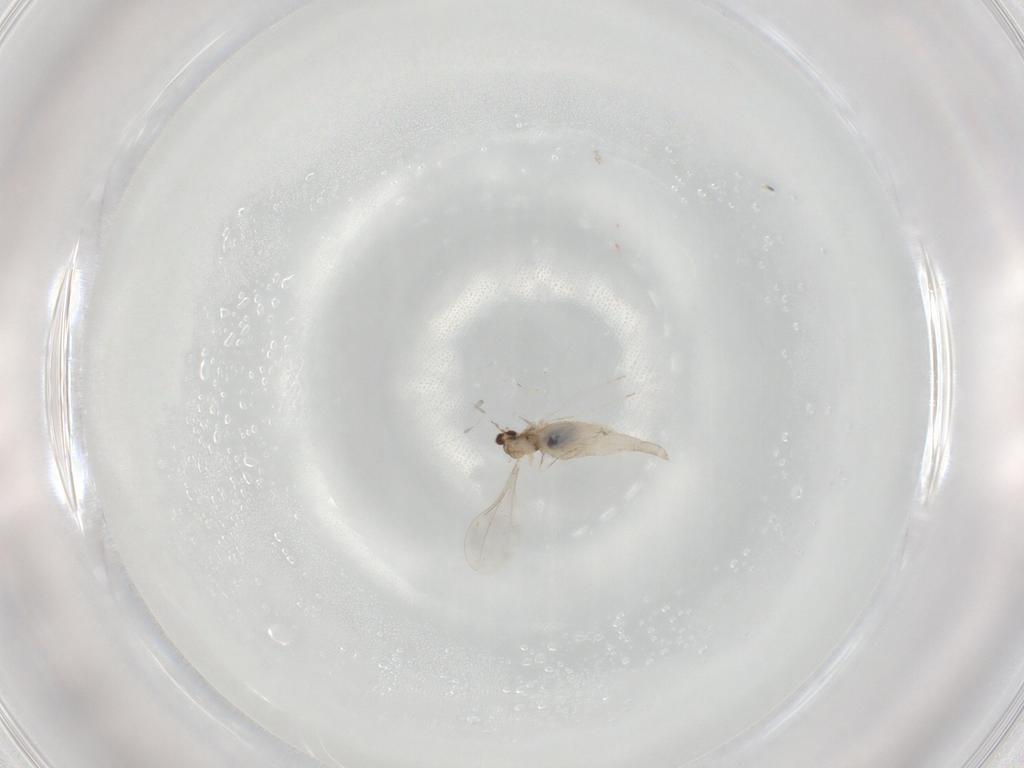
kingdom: Animalia
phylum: Arthropoda
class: Insecta
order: Diptera
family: Cecidomyiidae
